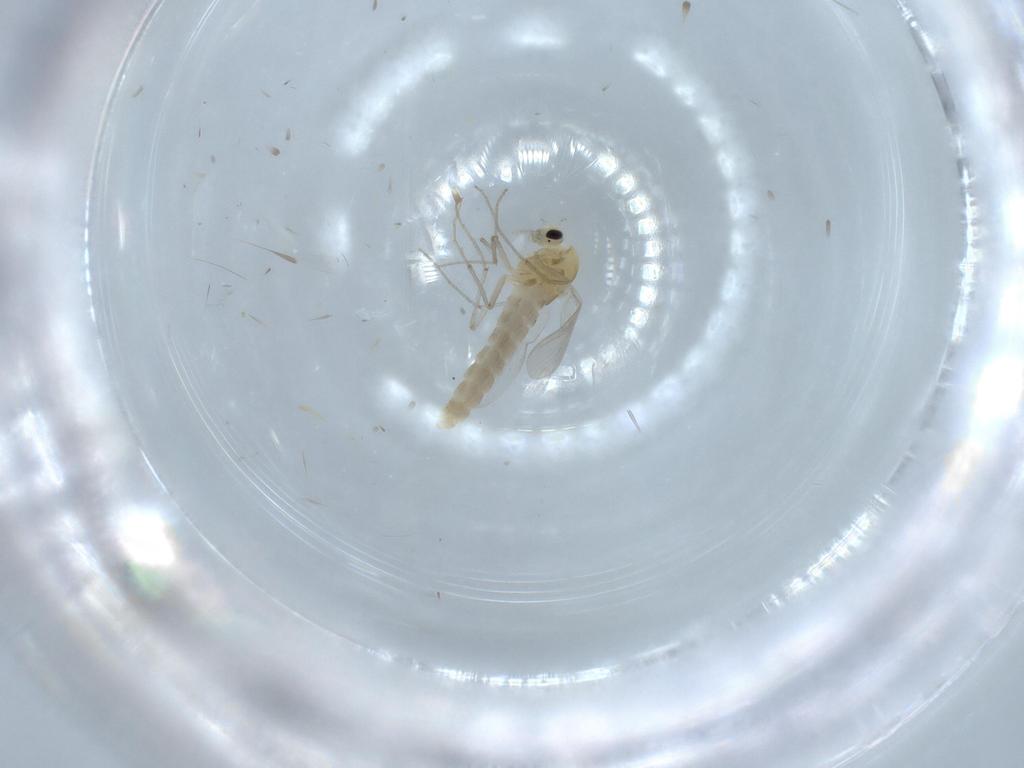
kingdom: Animalia
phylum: Arthropoda
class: Insecta
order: Diptera
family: Chironomidae
